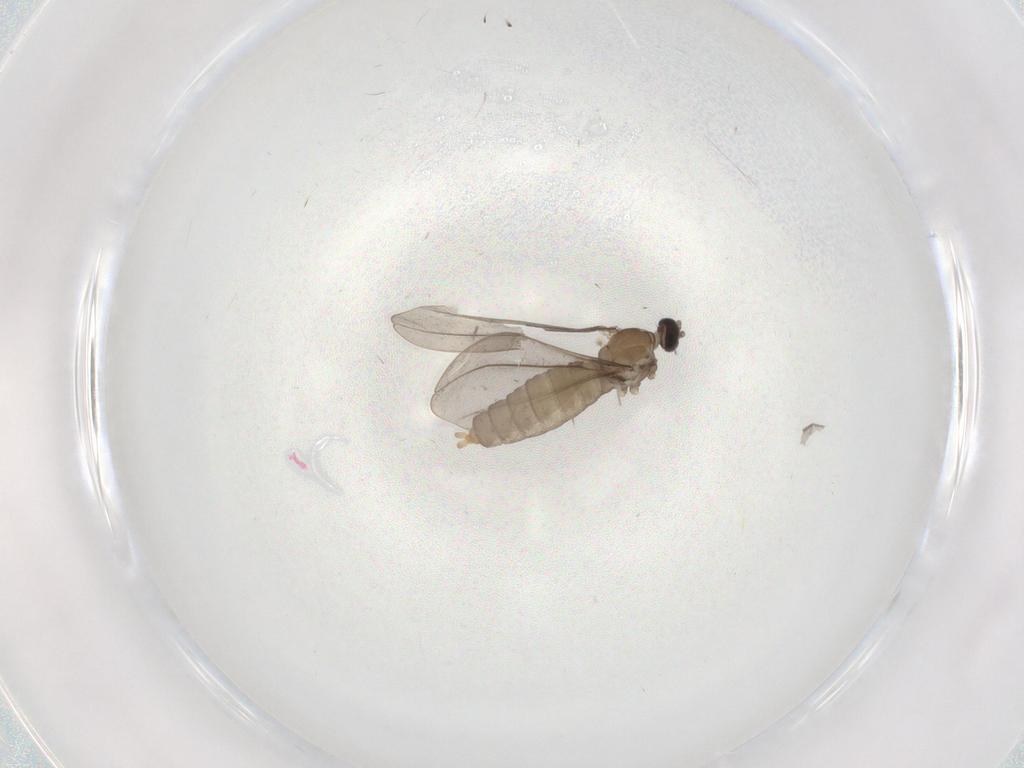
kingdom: Animalia
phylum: Arthropoda
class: Insecta
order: Diptera
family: Cecidomyiidae
